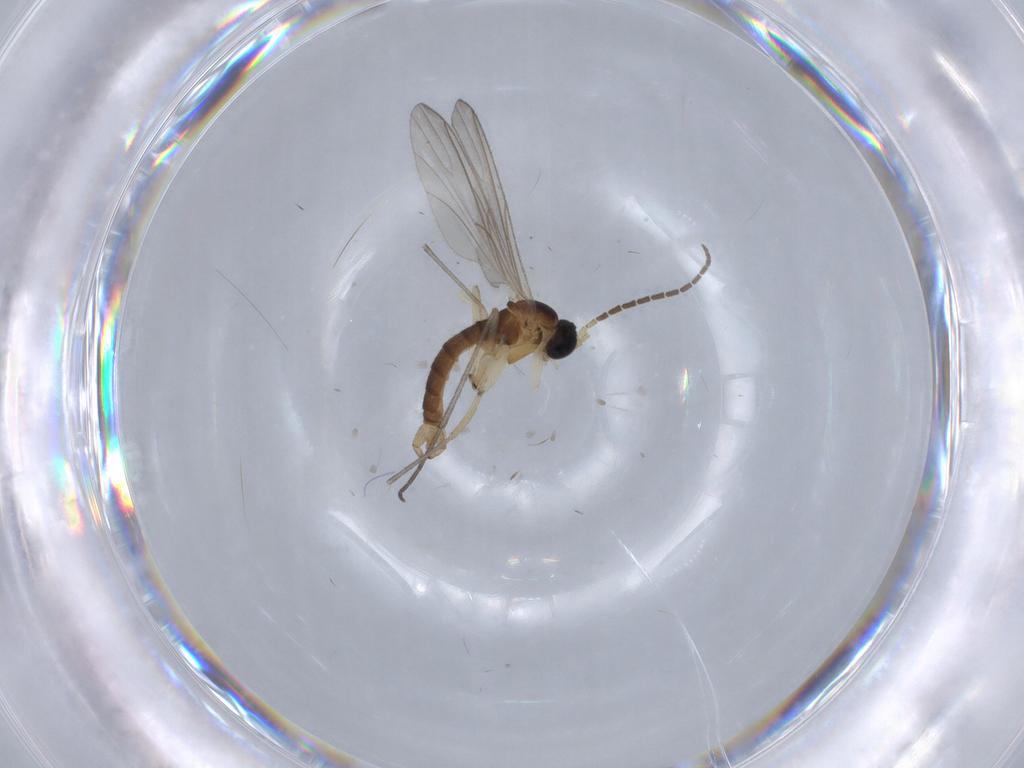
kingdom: Animalia
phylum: Arthropoda
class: Insecta
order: Diptera
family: Sciaridae
